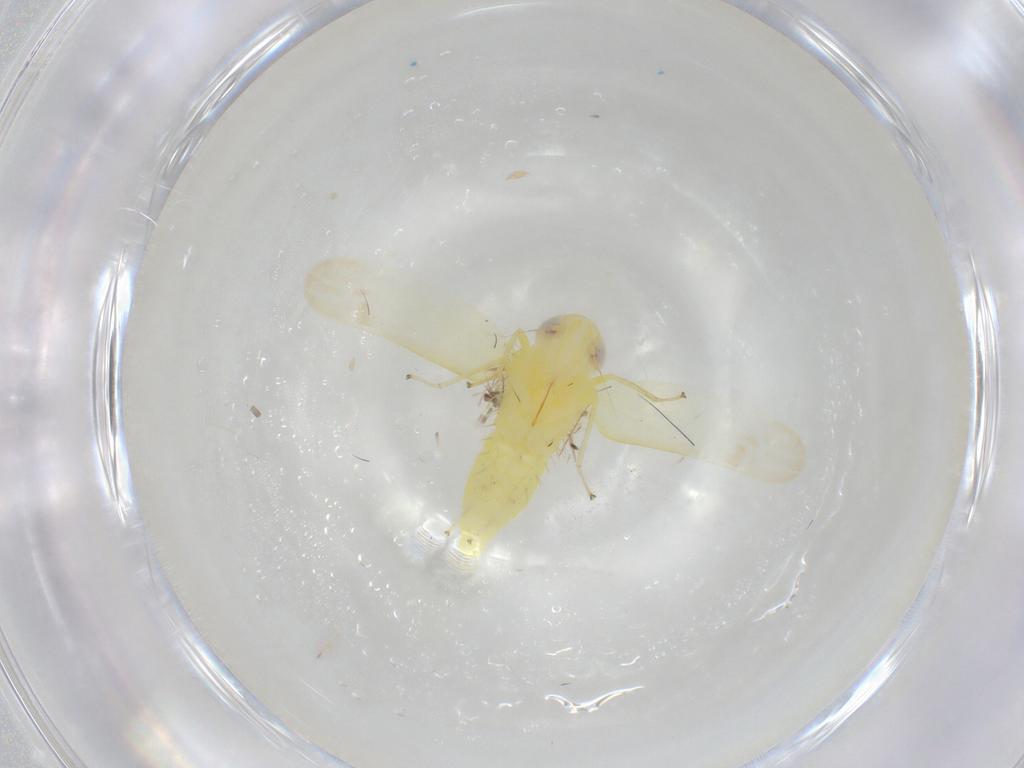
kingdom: Animalia
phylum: Arthropoda
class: Insecta
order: Hemiptera
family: Cicadellidae
